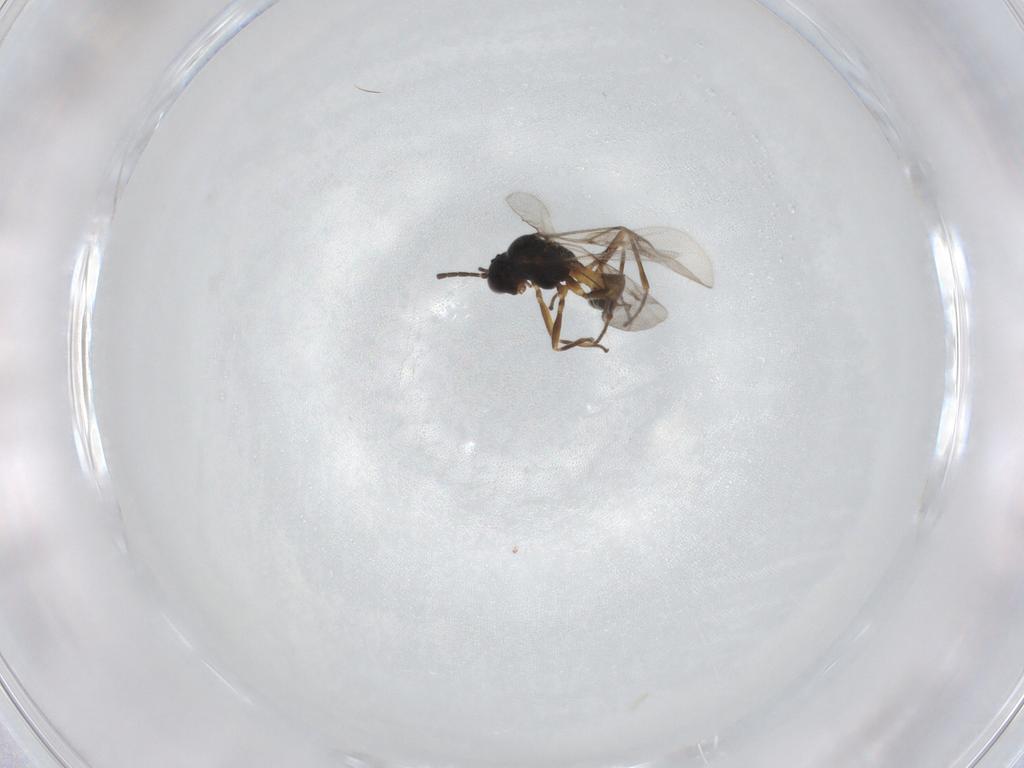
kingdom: Animalia
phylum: Arthropoda
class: Insecta
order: Hymenoptera
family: Braconidae
